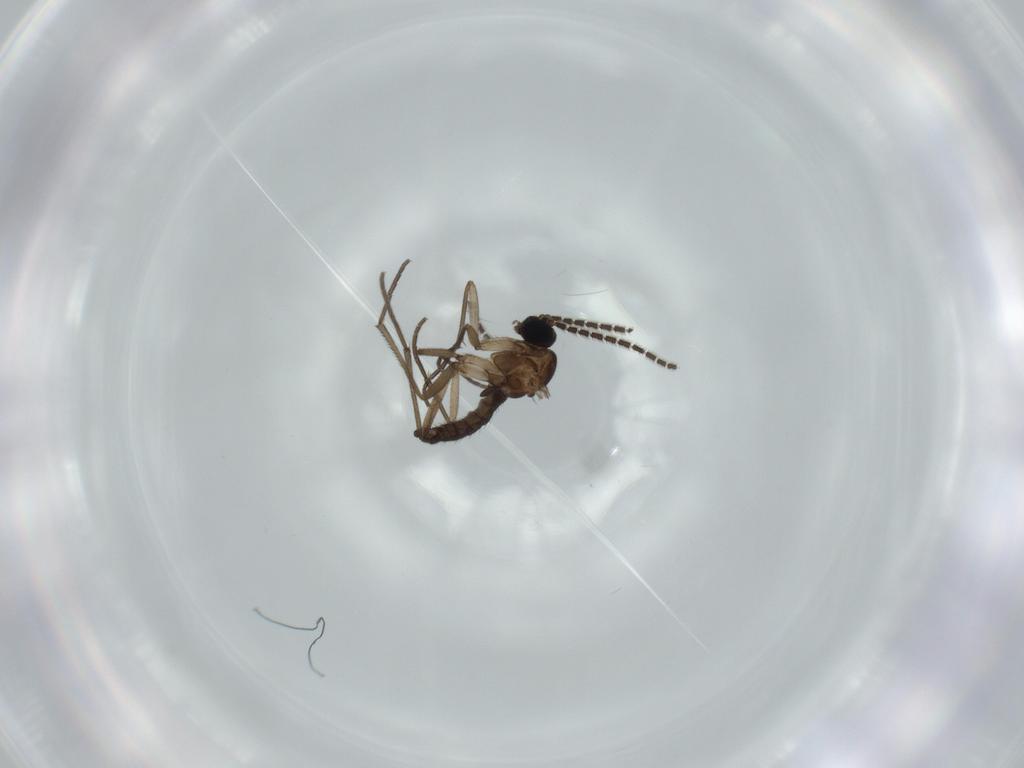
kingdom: Animalia
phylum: Arthropoda
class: Insecta
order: Diptera
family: Sciaridae
